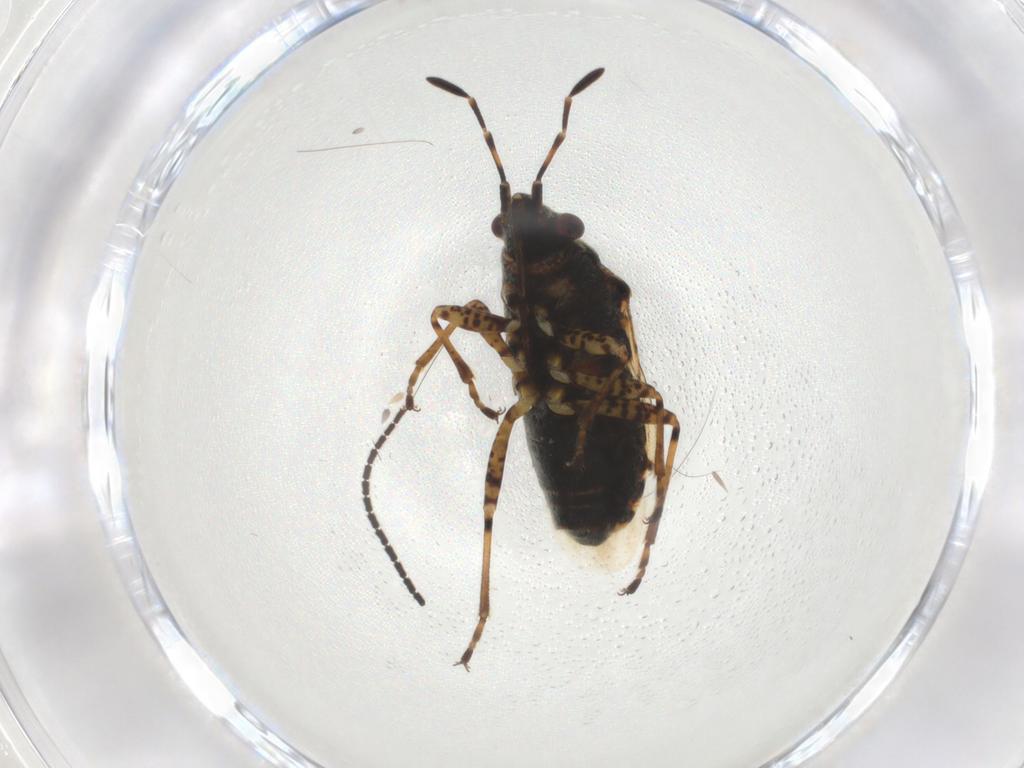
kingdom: Animalia
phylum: Arthropoda
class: Insecta
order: Hemiptera
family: Lygaeidae
